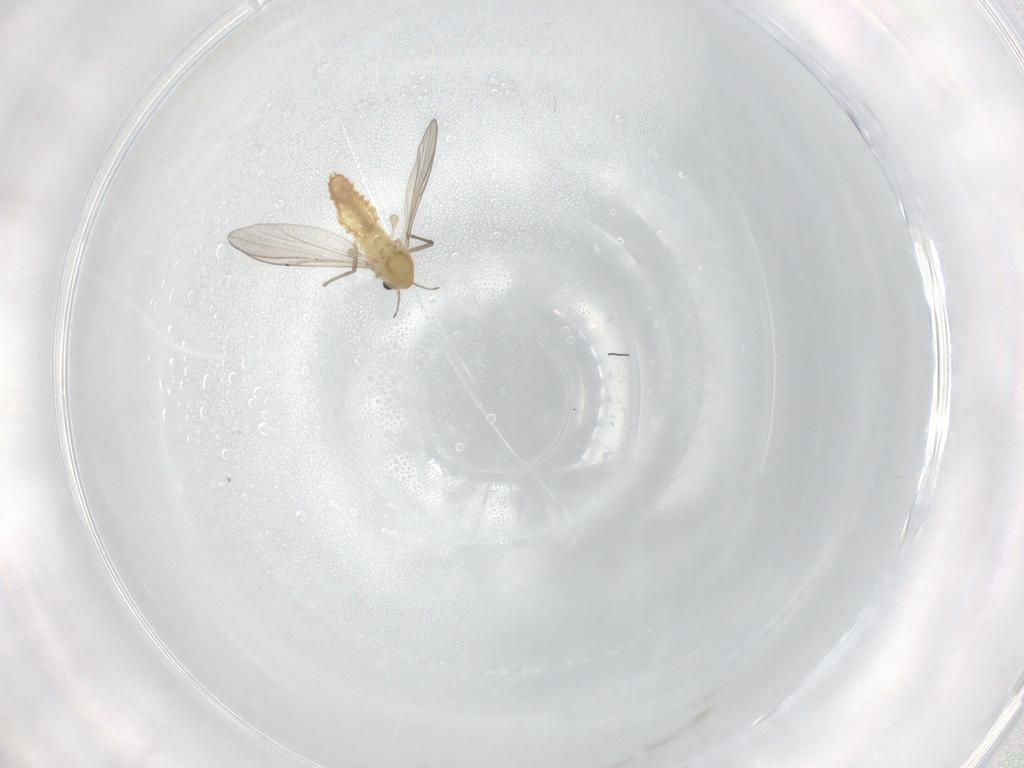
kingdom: Animalia
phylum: Arthropoda
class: Insecta
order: Diptera
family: Chironomidae
